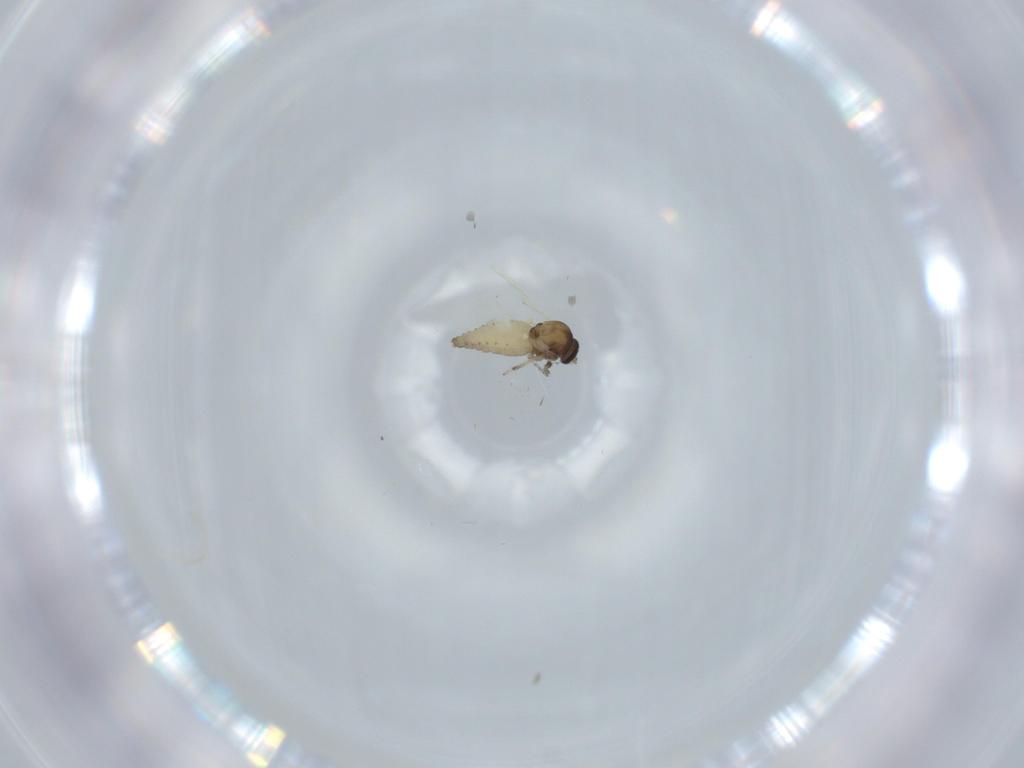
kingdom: Animalia
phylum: Arthropoda
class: Insecta
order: Diptera
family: Ceratopogonidae
